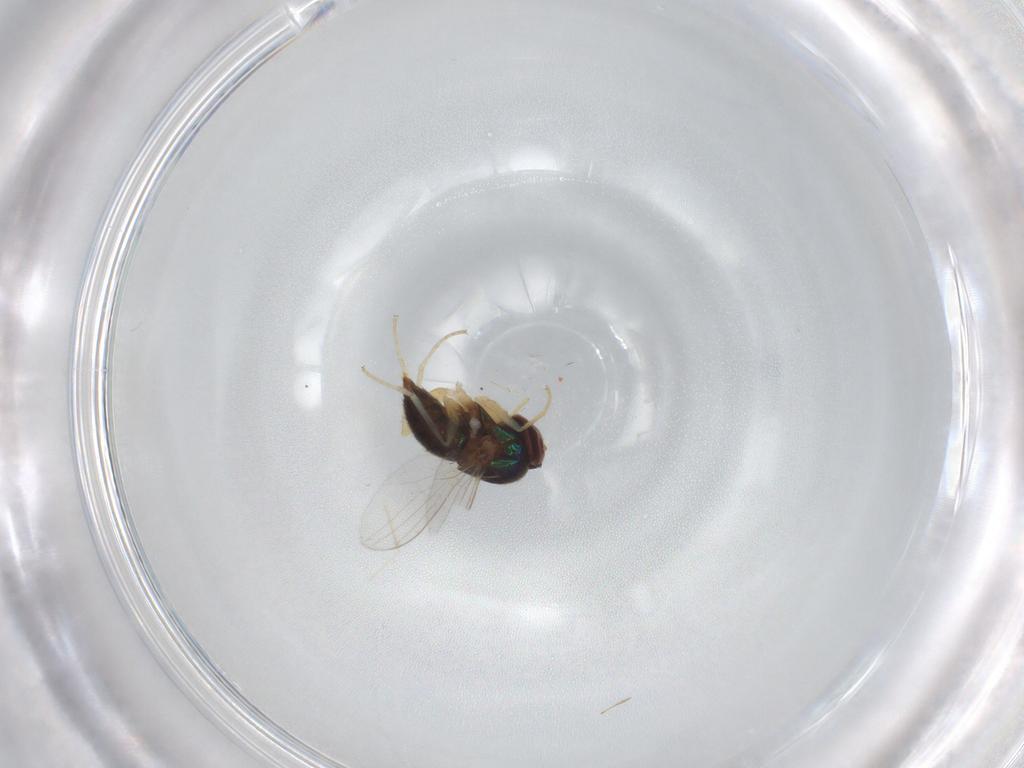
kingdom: Animalia
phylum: Arthropoda
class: Insecta
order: Diptera
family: Dolichopodidae
